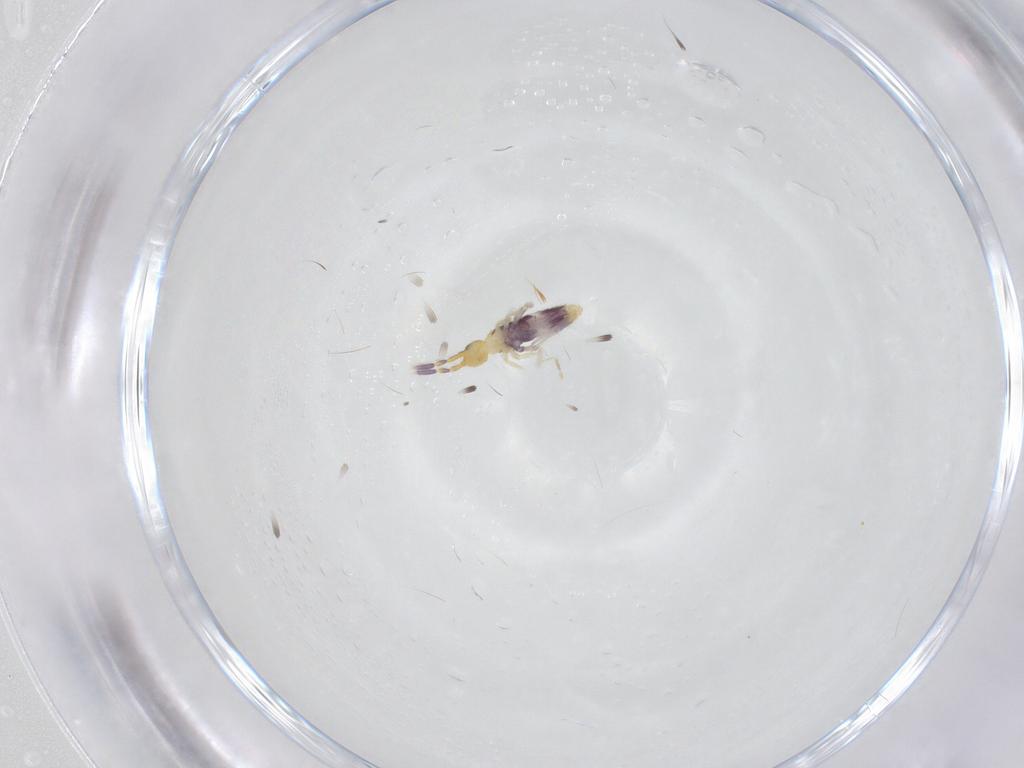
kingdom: Animalia
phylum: Arthropoda
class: Collembola
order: Entomobryomorpha
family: Entomobryidae
